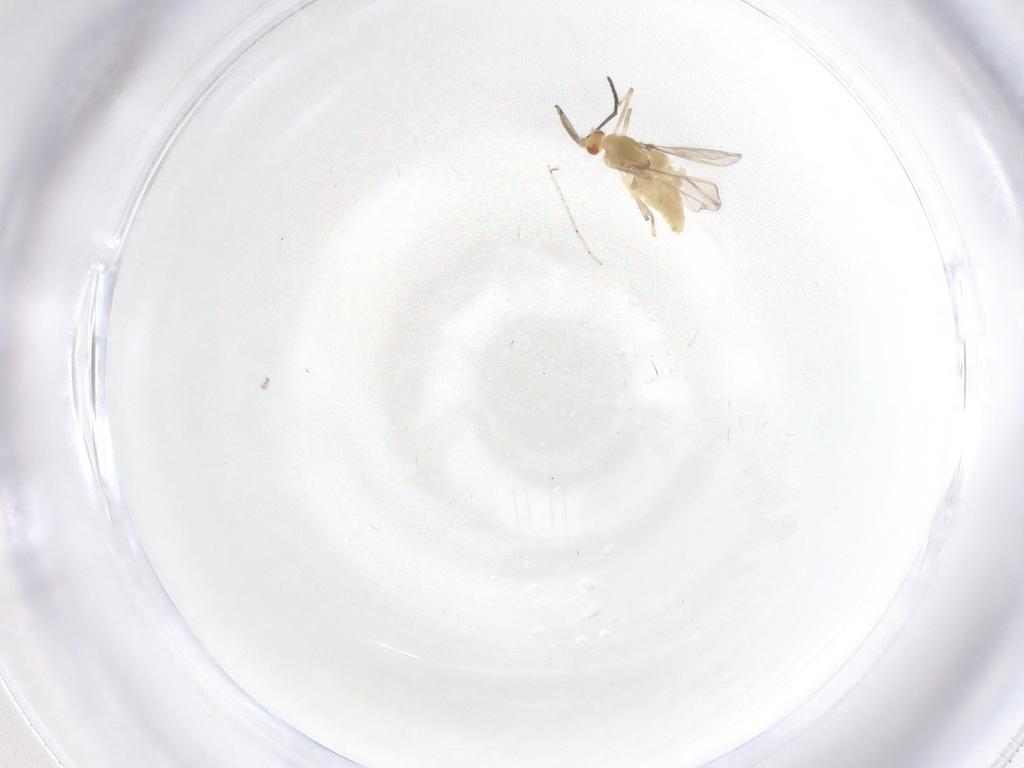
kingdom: Animalia
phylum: Arthropoda
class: Insecta
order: Diptera
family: Chironomidae
